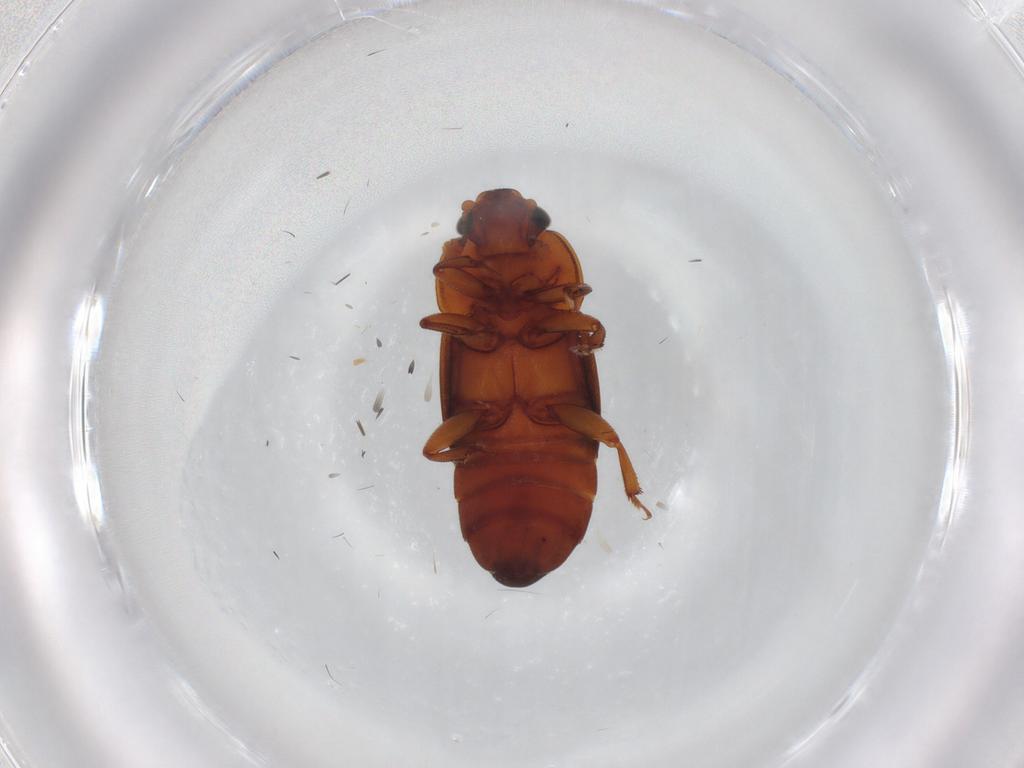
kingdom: Animalia
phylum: Arthropoda
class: Insecta
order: Coleoptera
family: Nitidulidae
